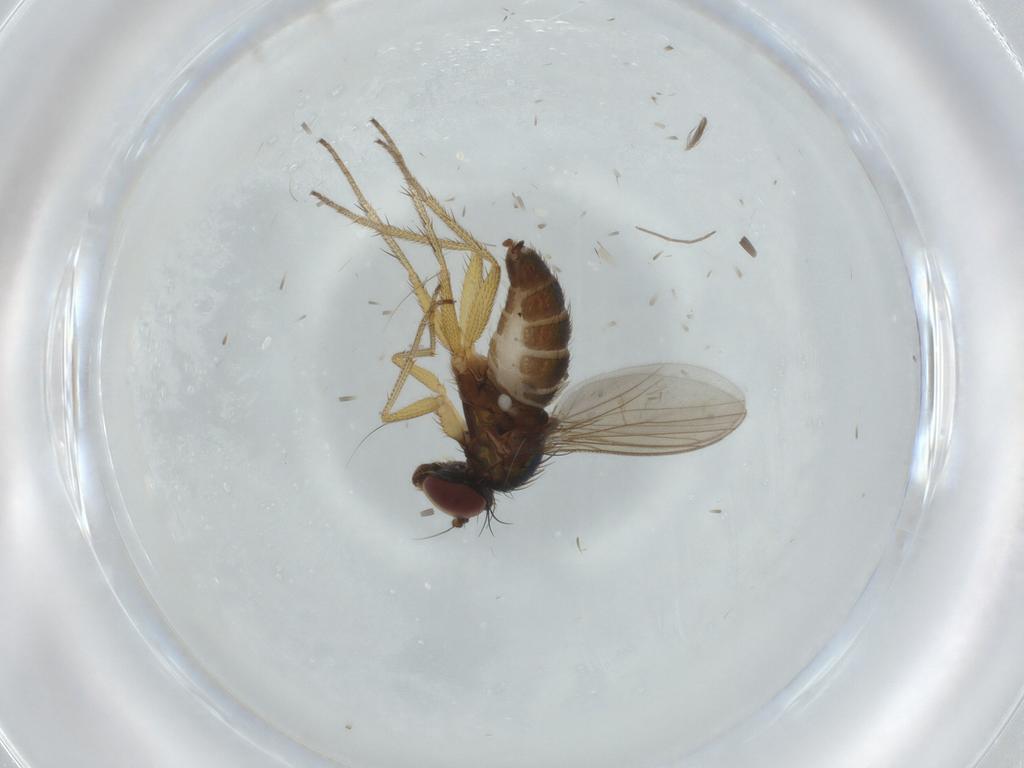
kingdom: Animalia
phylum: Arthropoda
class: Insecta
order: Diptera
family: Dolichopodidae
